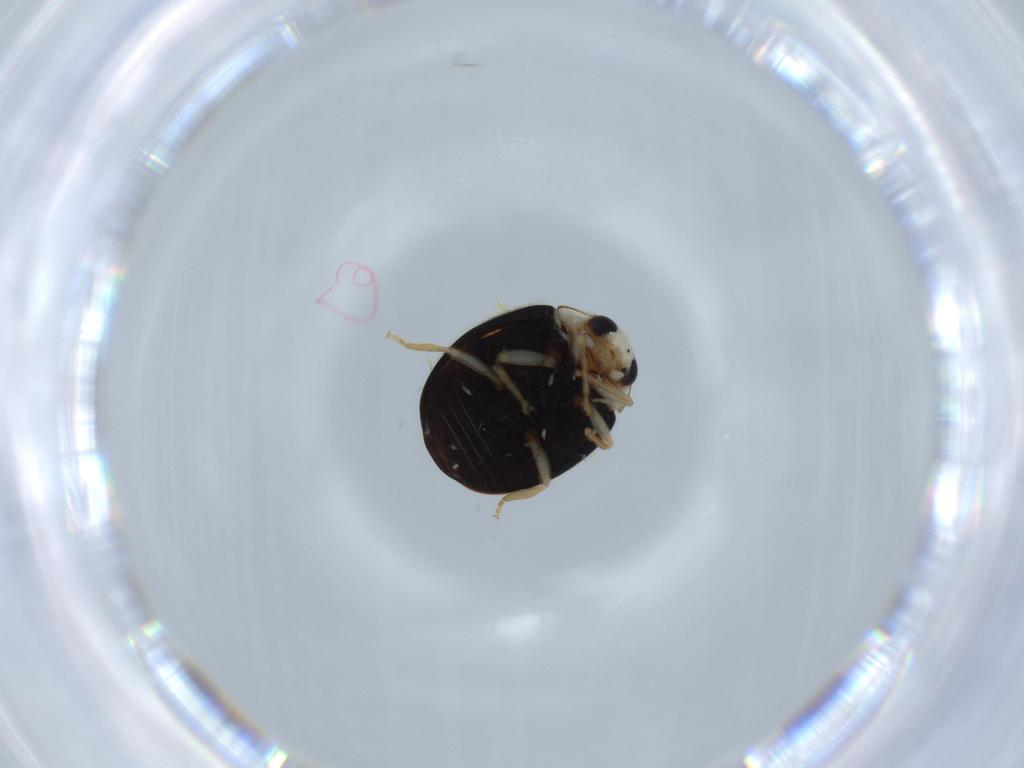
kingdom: Animalia
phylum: Arthropoda
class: Insecta
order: Coleoptera
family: Coccinellidae
